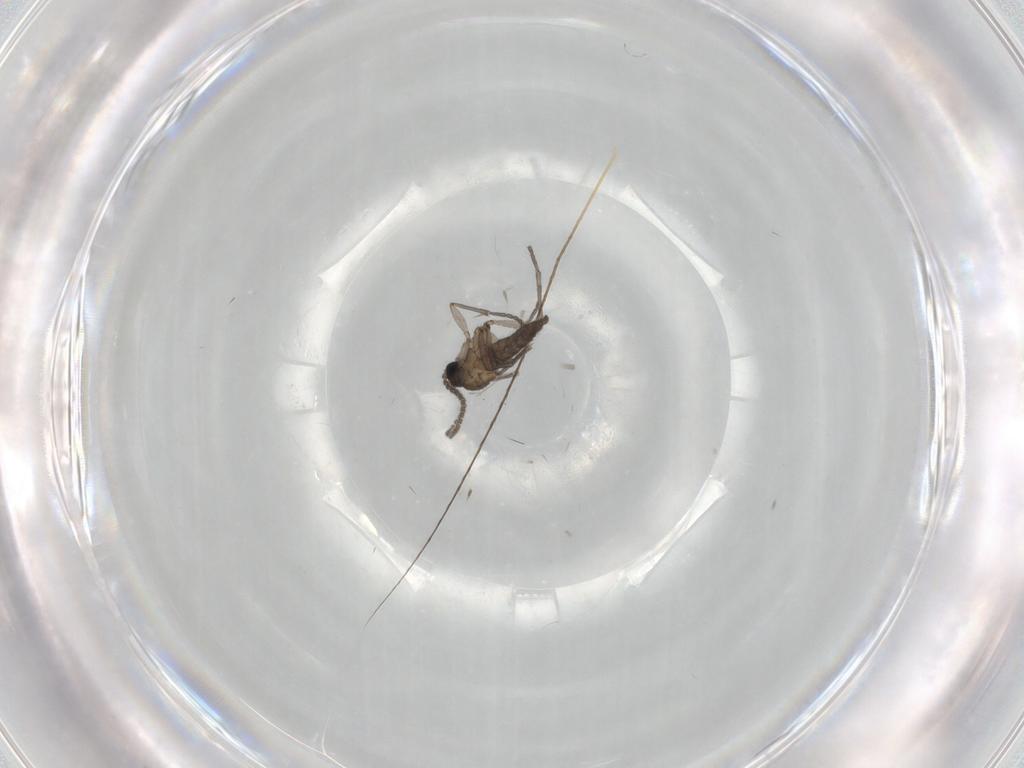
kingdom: Animalia
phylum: Arthropoda
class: Insecta
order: Diptera
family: Sciaridae
